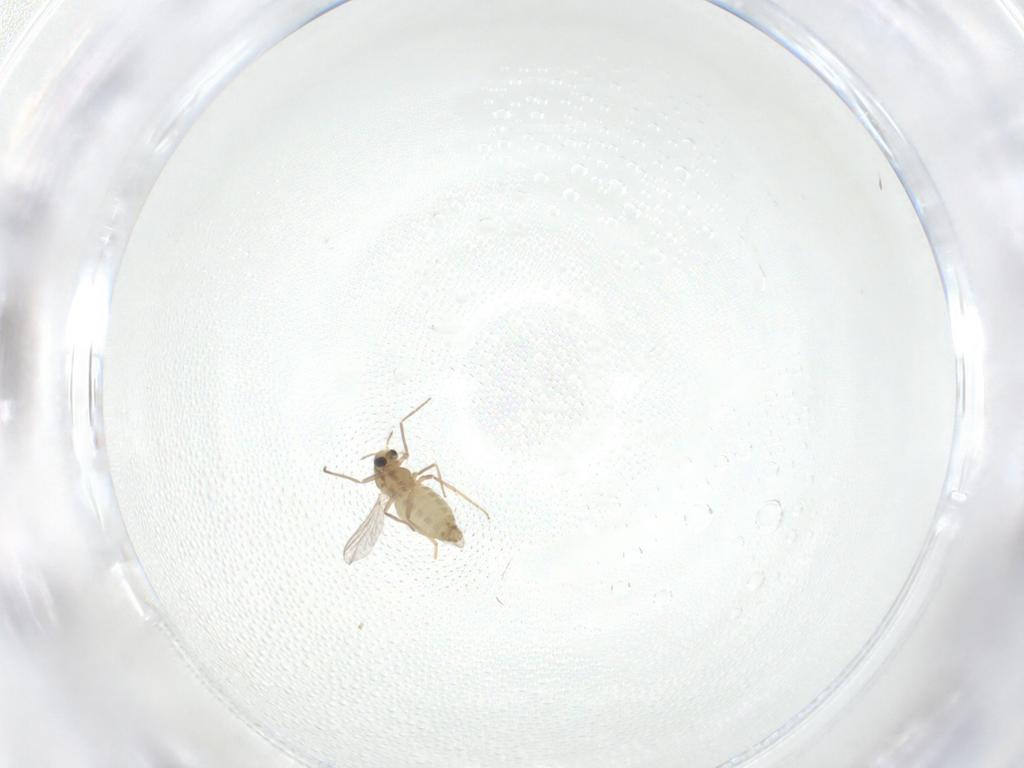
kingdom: Animalia
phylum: Arthropoda
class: Insecta
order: Diptera
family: Chironomidae
